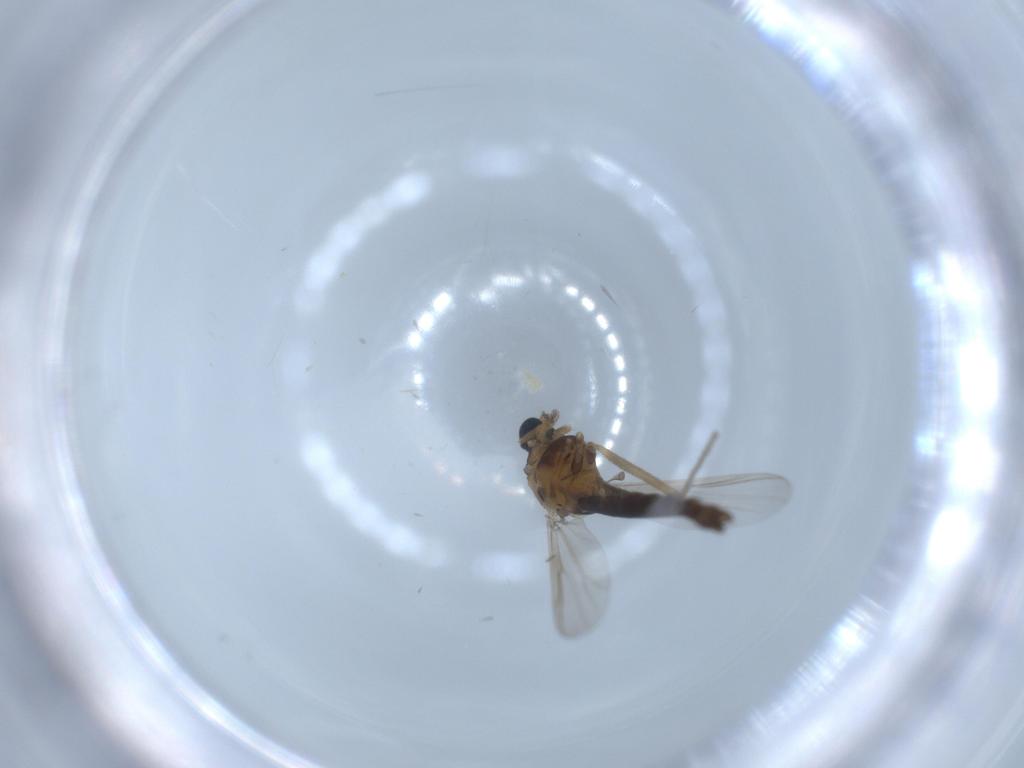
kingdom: Animalia
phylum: Arthropoda
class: Insecta
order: Diptera
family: Chironomidae
